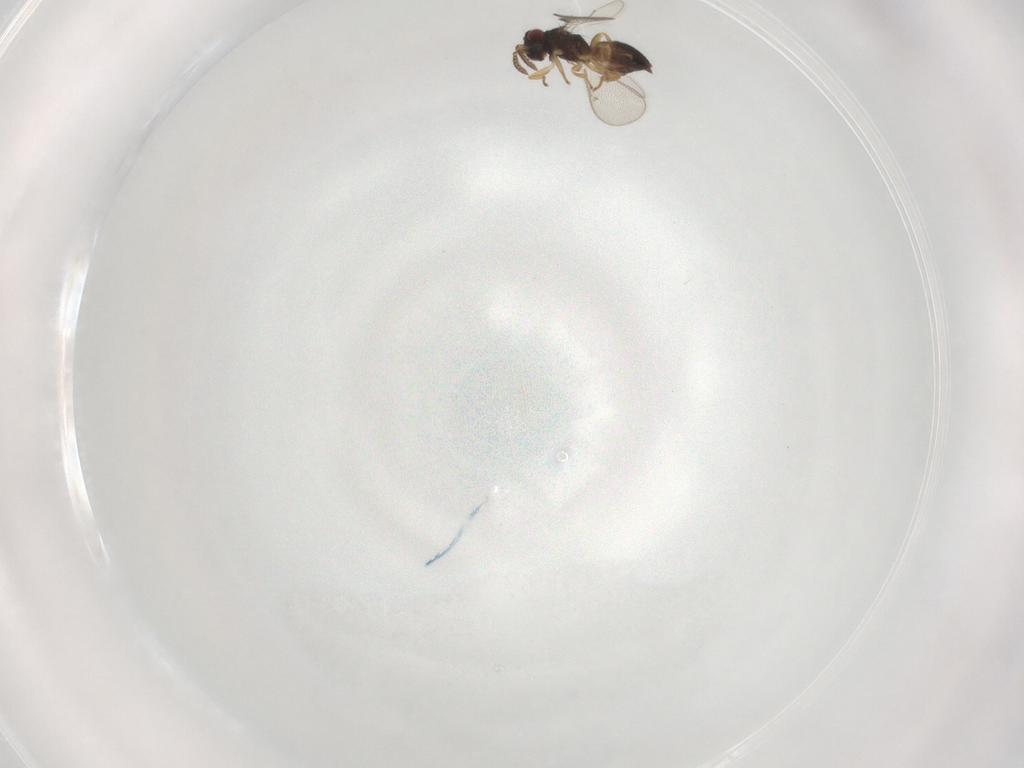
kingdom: Animalia
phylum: Arthropoda
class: Insecta
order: Hymenoptera
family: Eulophidae
